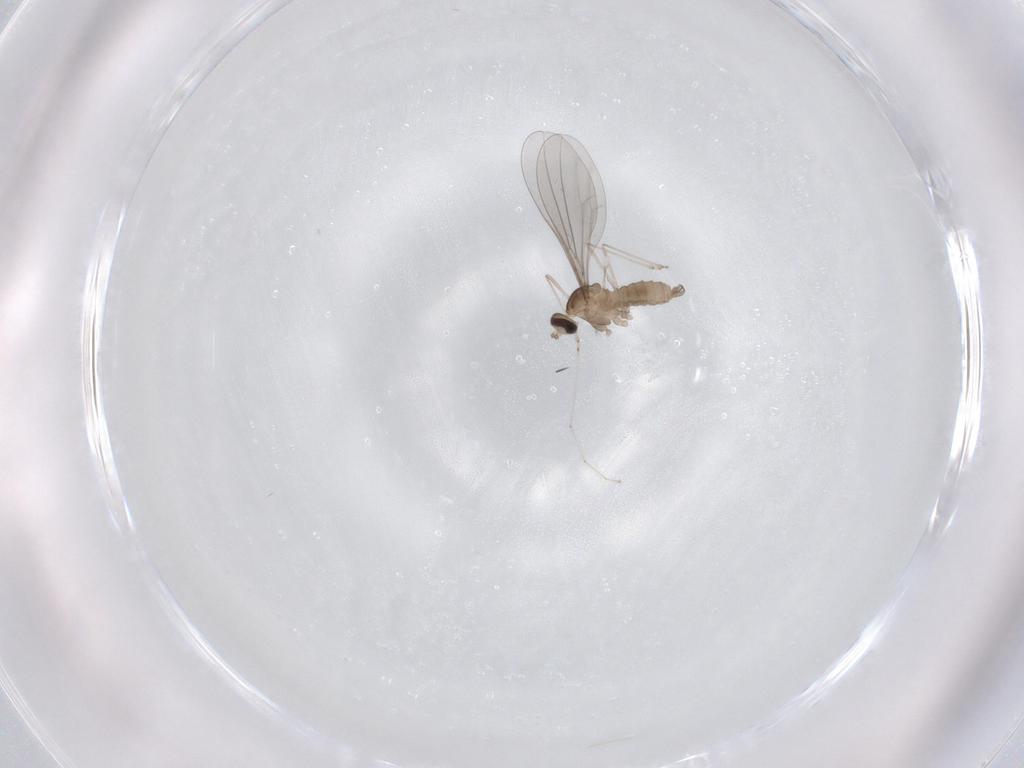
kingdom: Animalia
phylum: Arthropoda
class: Insecta
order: Diptera
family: Cecidomyiidae
